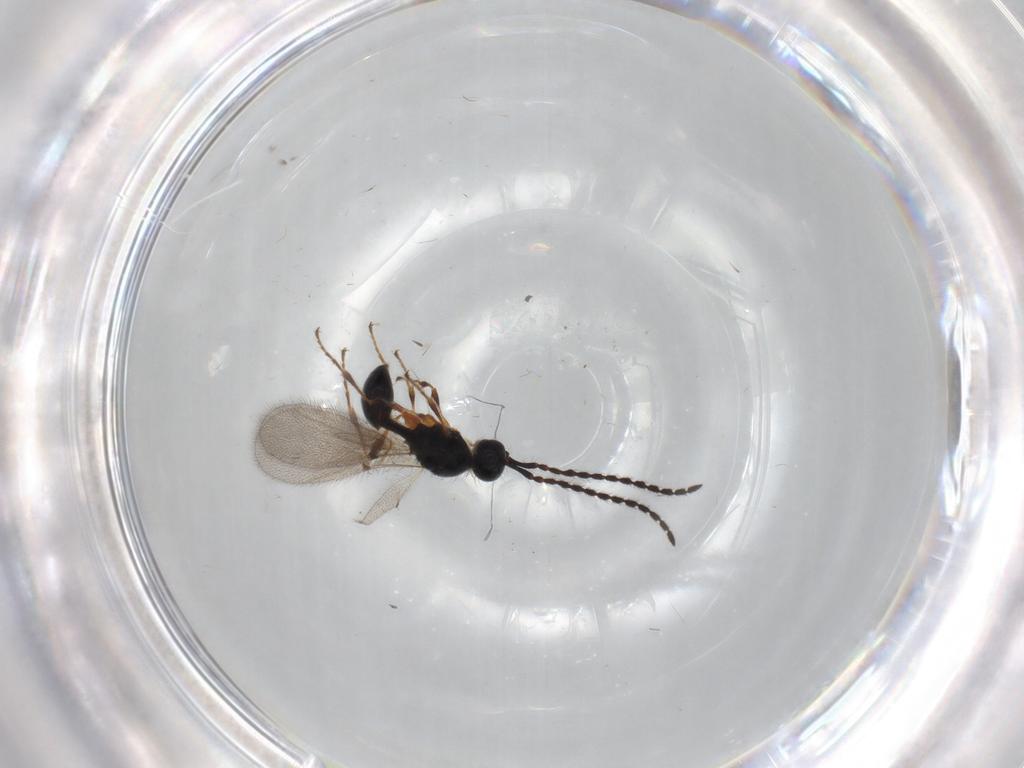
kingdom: Animalia
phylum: Arthropoda
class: Insecta
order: Hymenoptera
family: Diapriidae
